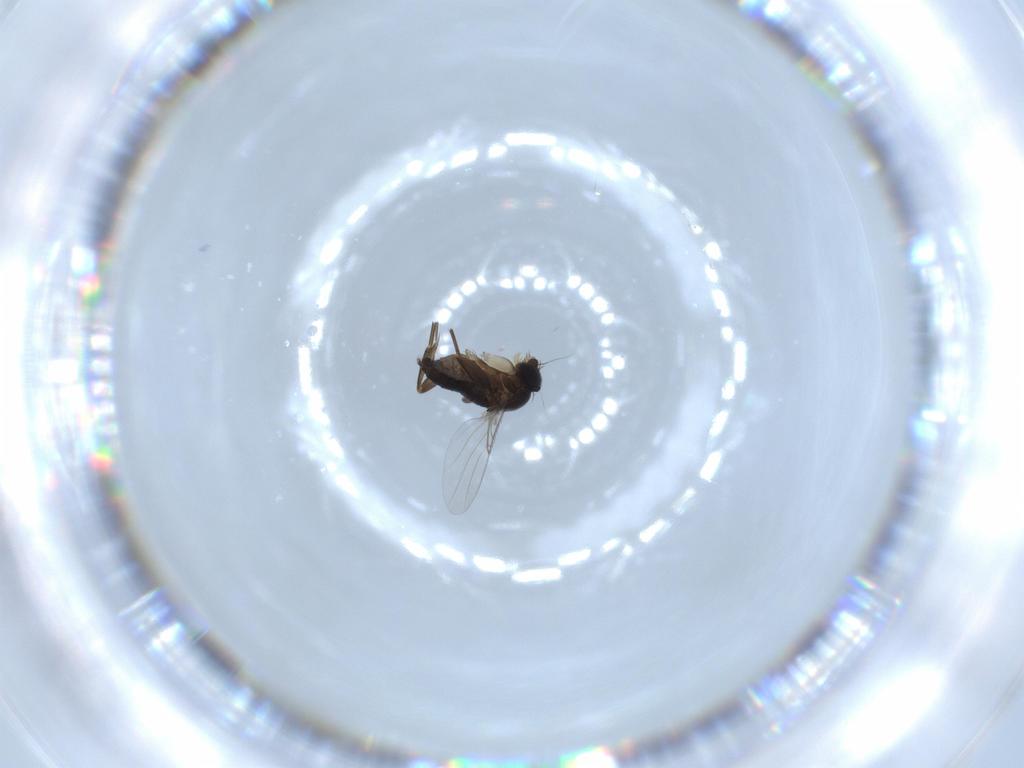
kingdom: Animalia
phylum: Arthropoda
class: Insecta
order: Diptera
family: Phoridae
